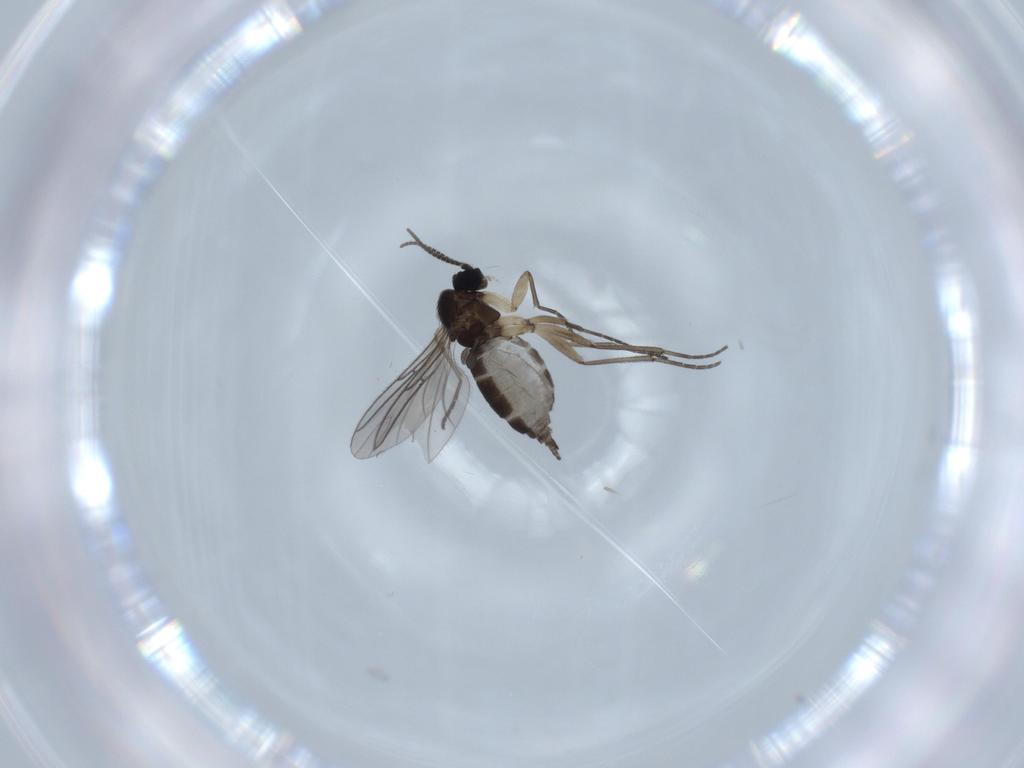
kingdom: Animalia
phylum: Arthropoda
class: Insecta
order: Diptera
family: Sciaridae
